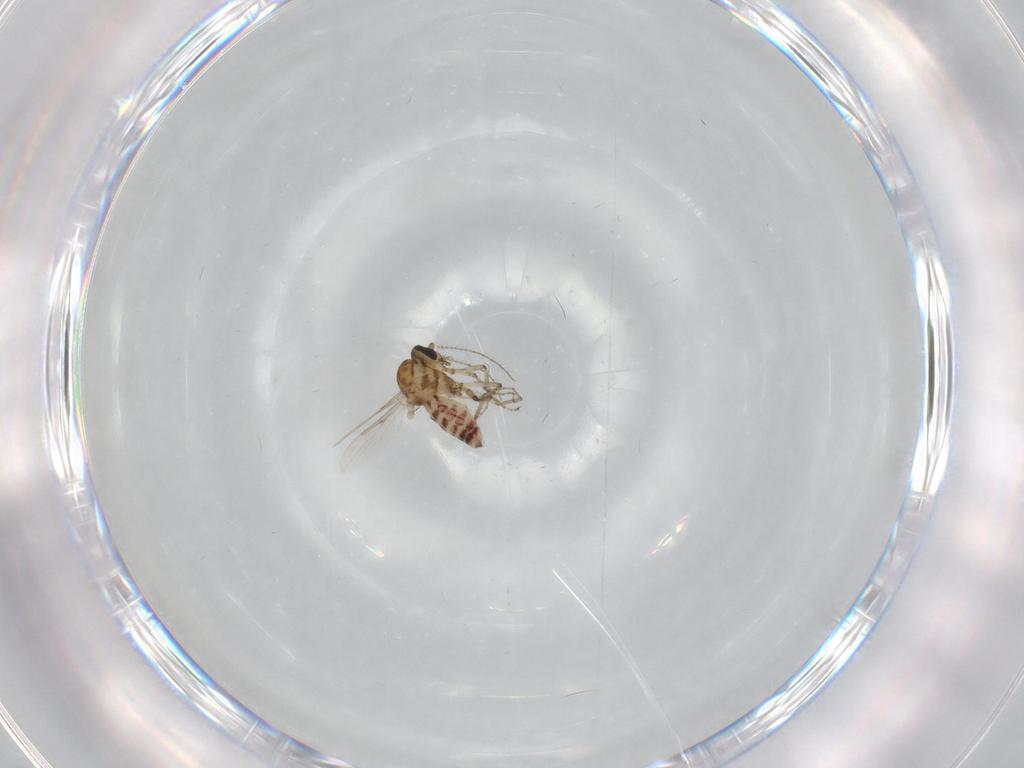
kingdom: Animalia
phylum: Arthropoda
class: Insecta
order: Diptera
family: Ceratopogonidae
